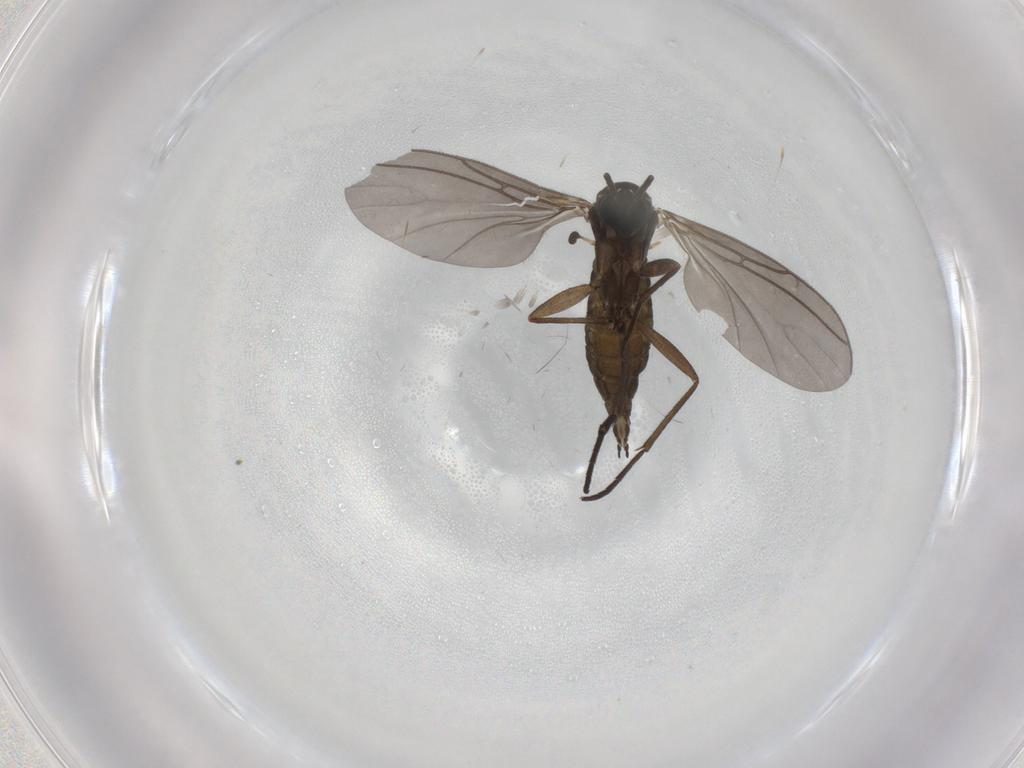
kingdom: Animalia
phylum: Arthropoda
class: Insecta
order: Diptera
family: Sciaridae
